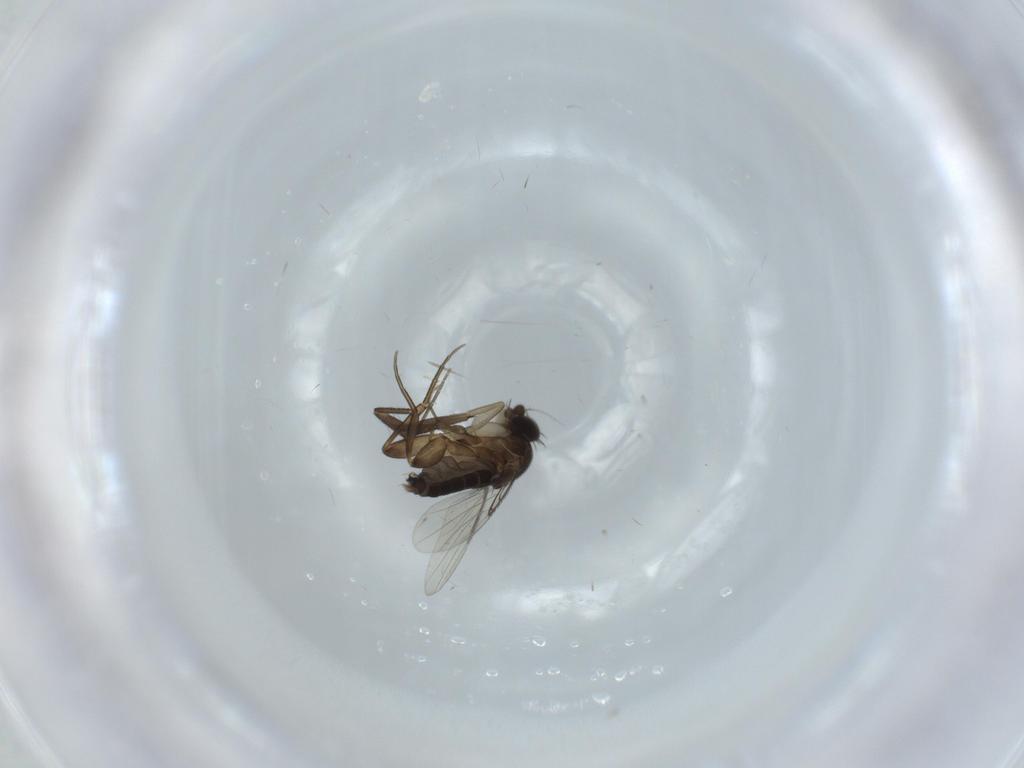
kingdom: Animalia
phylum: Arthropoda
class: Insecta
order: Diptera
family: Sciaridae
